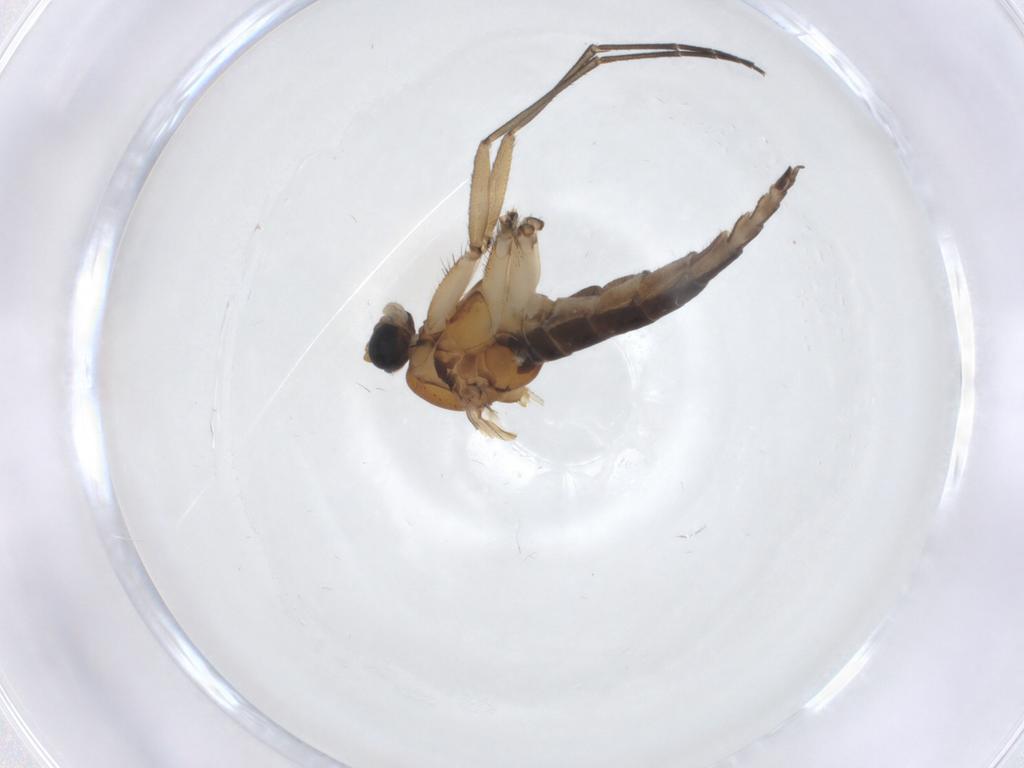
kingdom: Animalia
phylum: Arthropoda
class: Insecta
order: Diptera
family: Sciaridae
